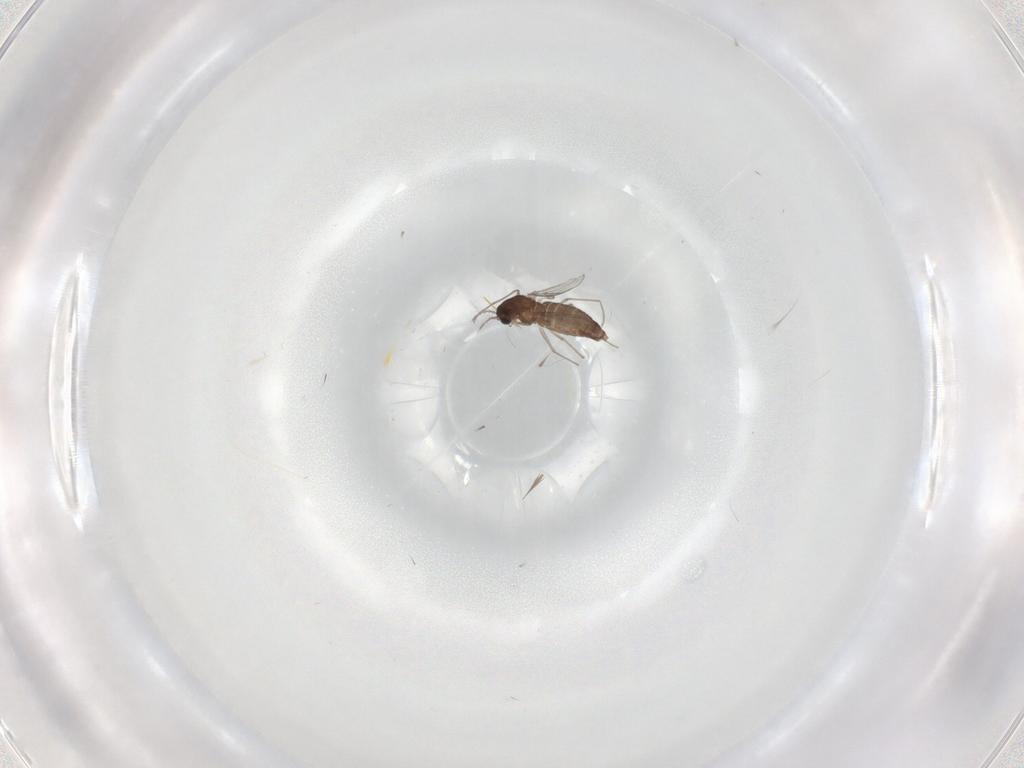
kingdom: Animalia
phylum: Arthropoda
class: Insecta
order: Diptera
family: Chironomidae
